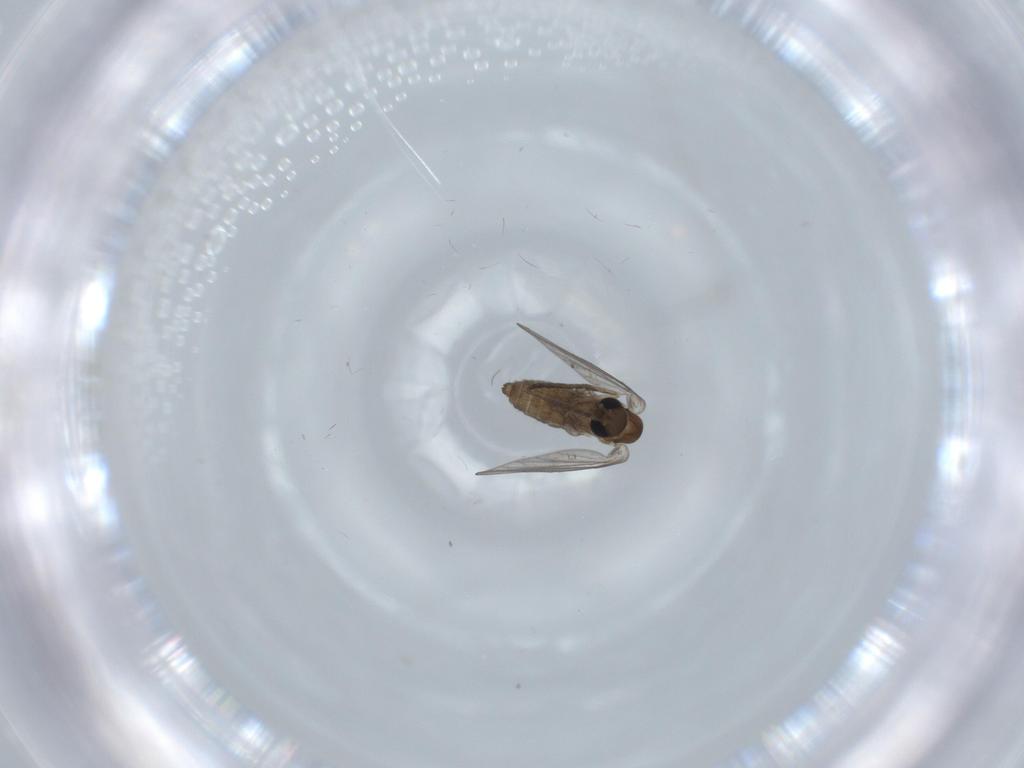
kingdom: Animalia
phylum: Arthropoda
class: Insecta
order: Diptera
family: Psychodidae
